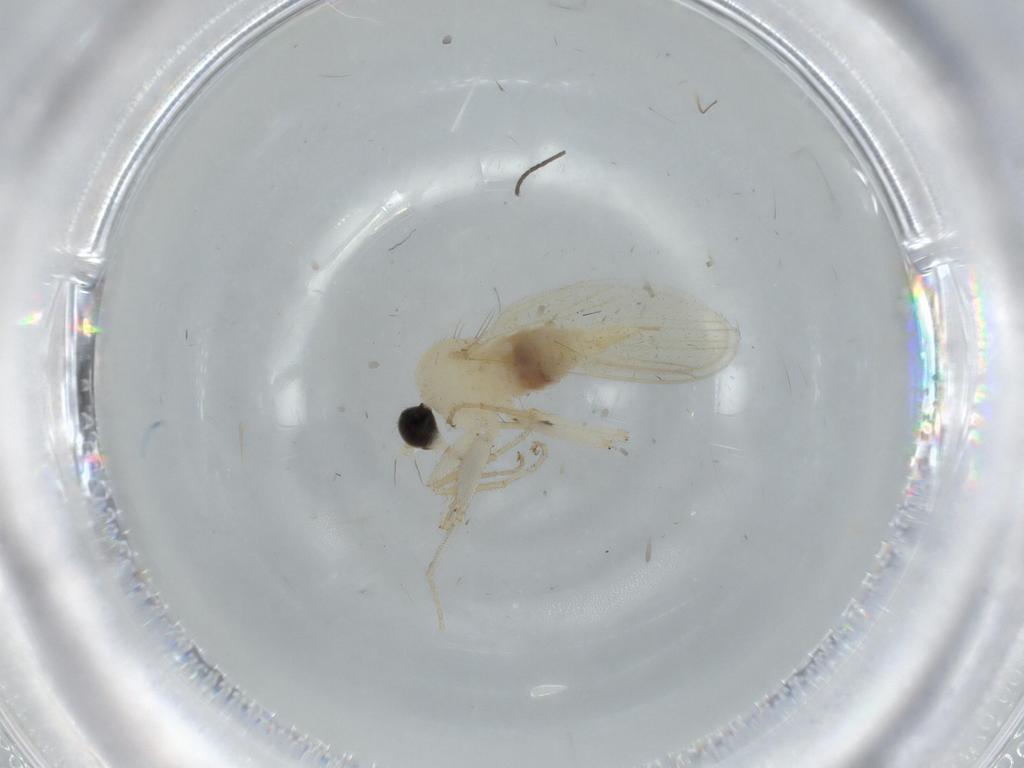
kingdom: Animalia
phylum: Arthropoda
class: Insecta
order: Diptera
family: Hybotidae
